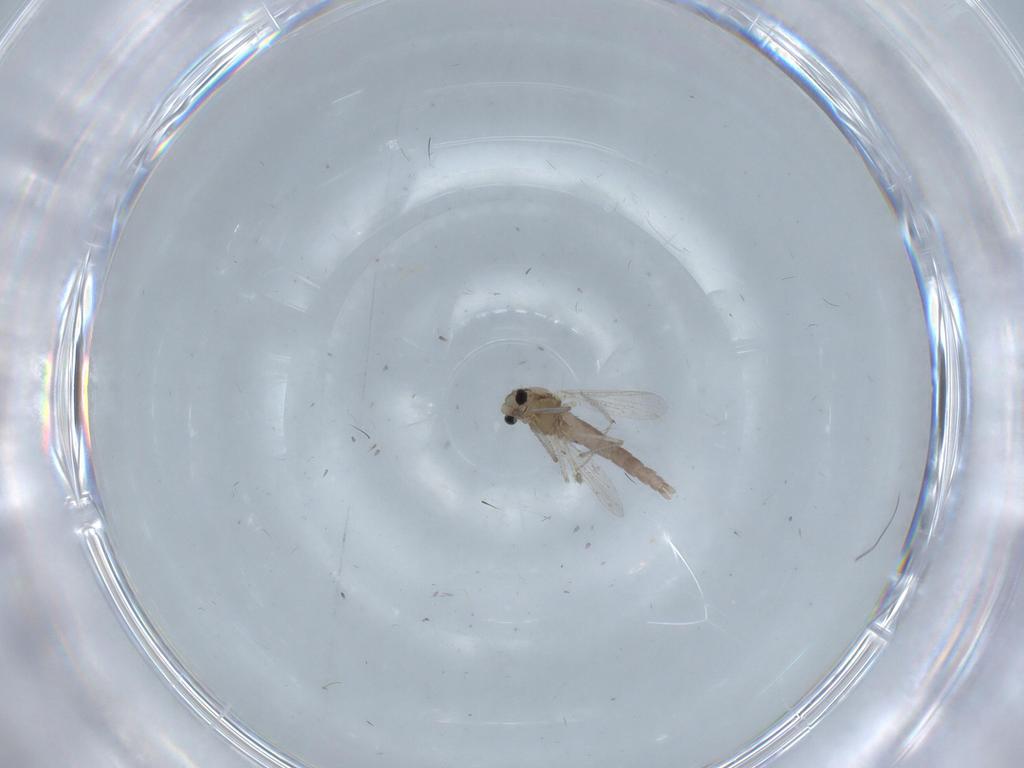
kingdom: Animalia
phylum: Arthropoda
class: Insecta
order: Diptera
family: Chironomidae
